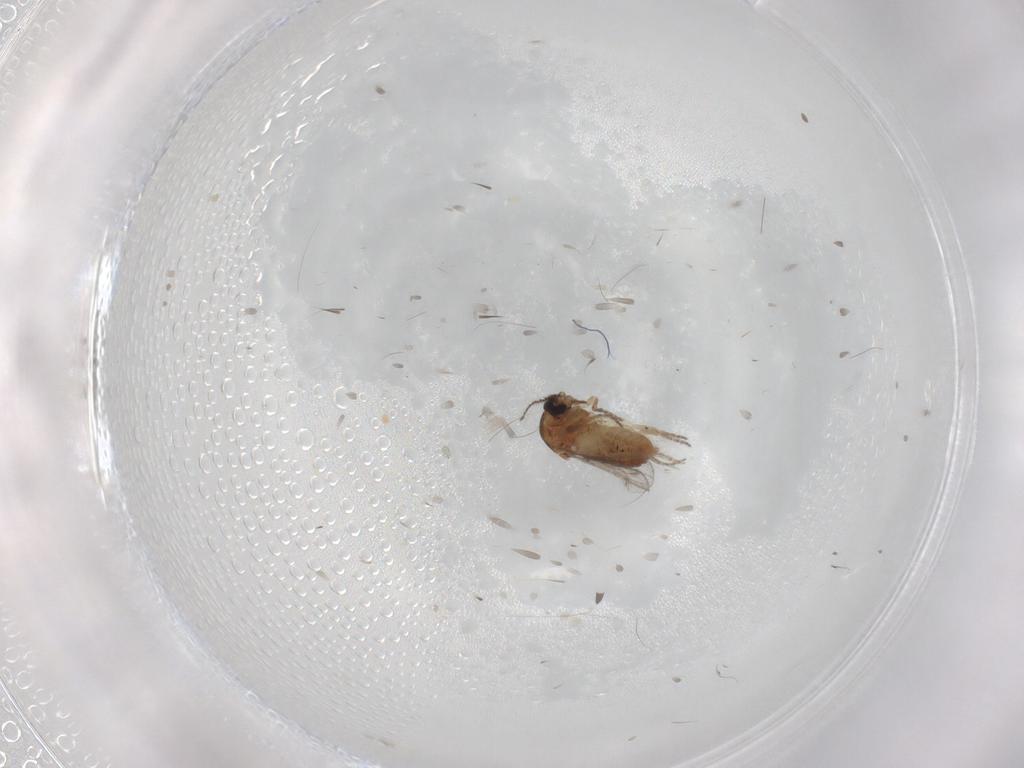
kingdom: Animalia
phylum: Arthropoda
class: Insecta
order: Diptera
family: Ceratopogonidae
